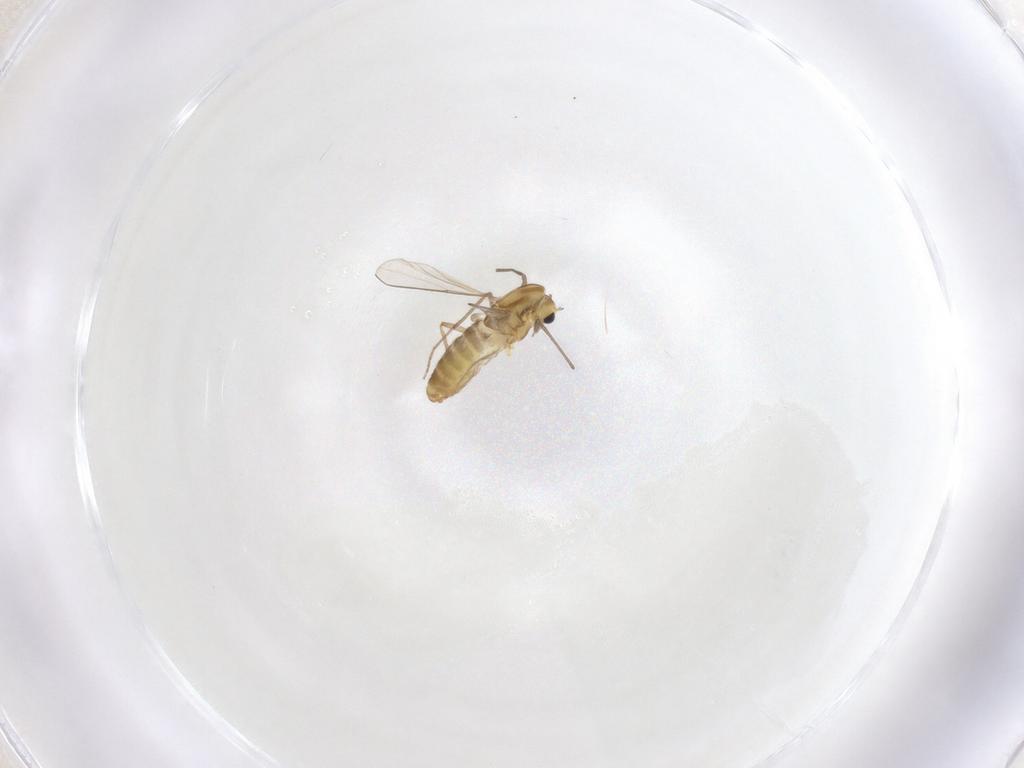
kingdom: Animalia
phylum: Arthropoda
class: Insecta
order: Diptera
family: Chironomidae
